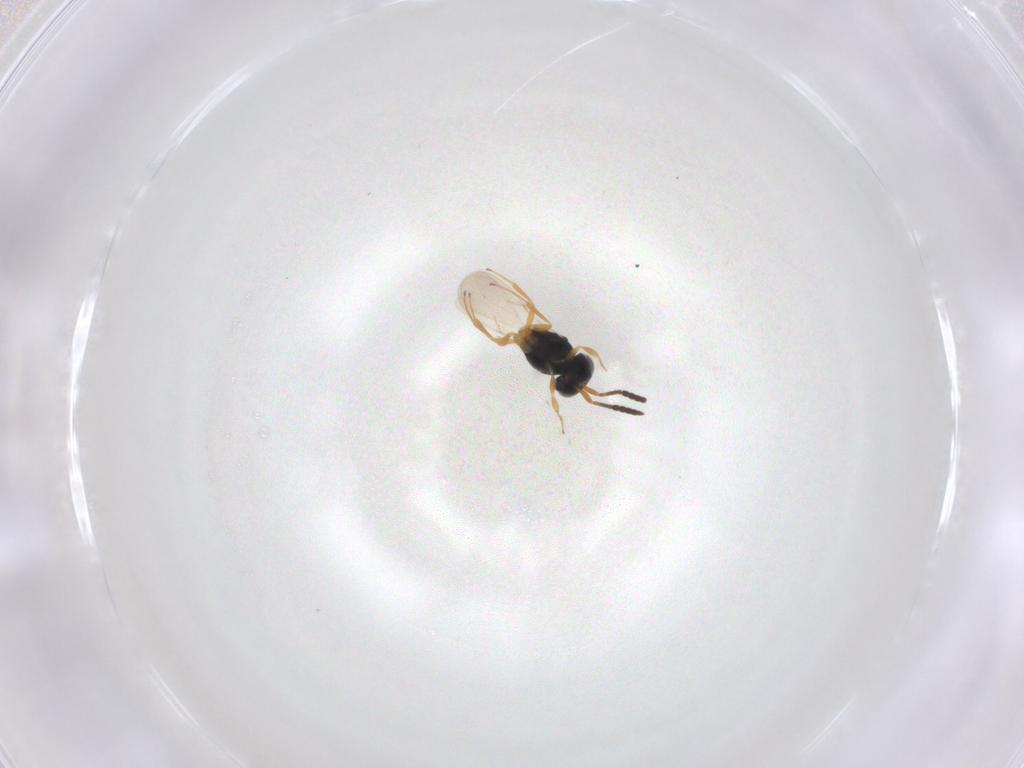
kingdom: Animalia
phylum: Arthropoda
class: Insecta
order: Hymenoptera
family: Scelionidae
